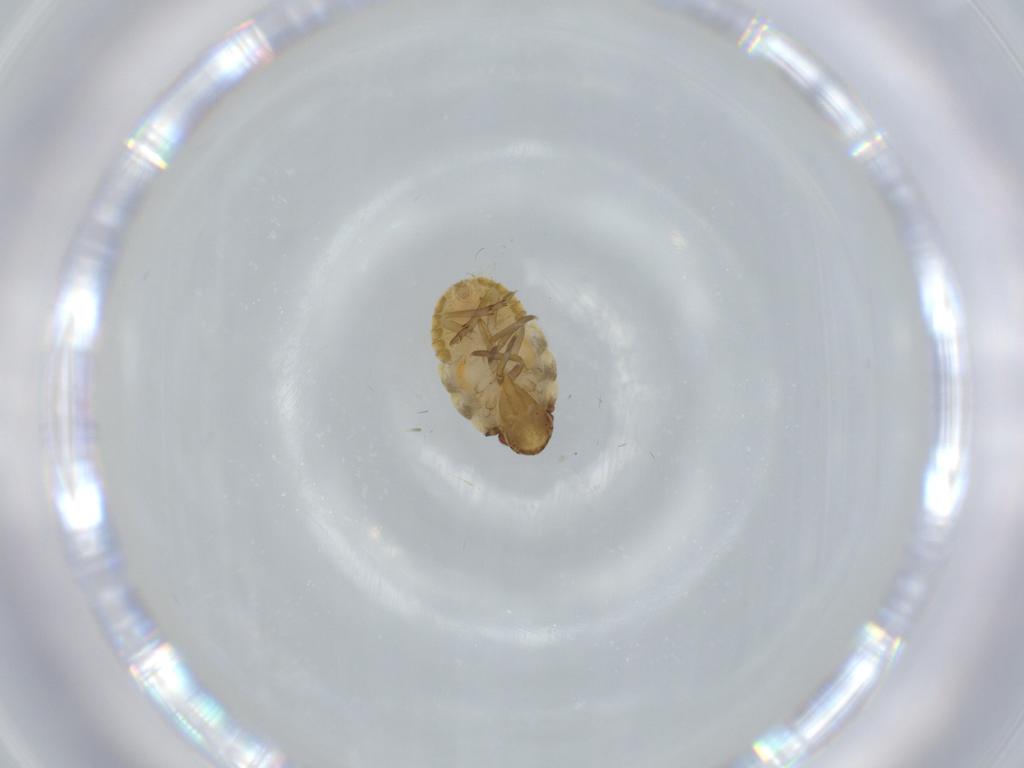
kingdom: Animalia
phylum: Arthropoda
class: Insecta
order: Hemiptera
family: Flatidae
